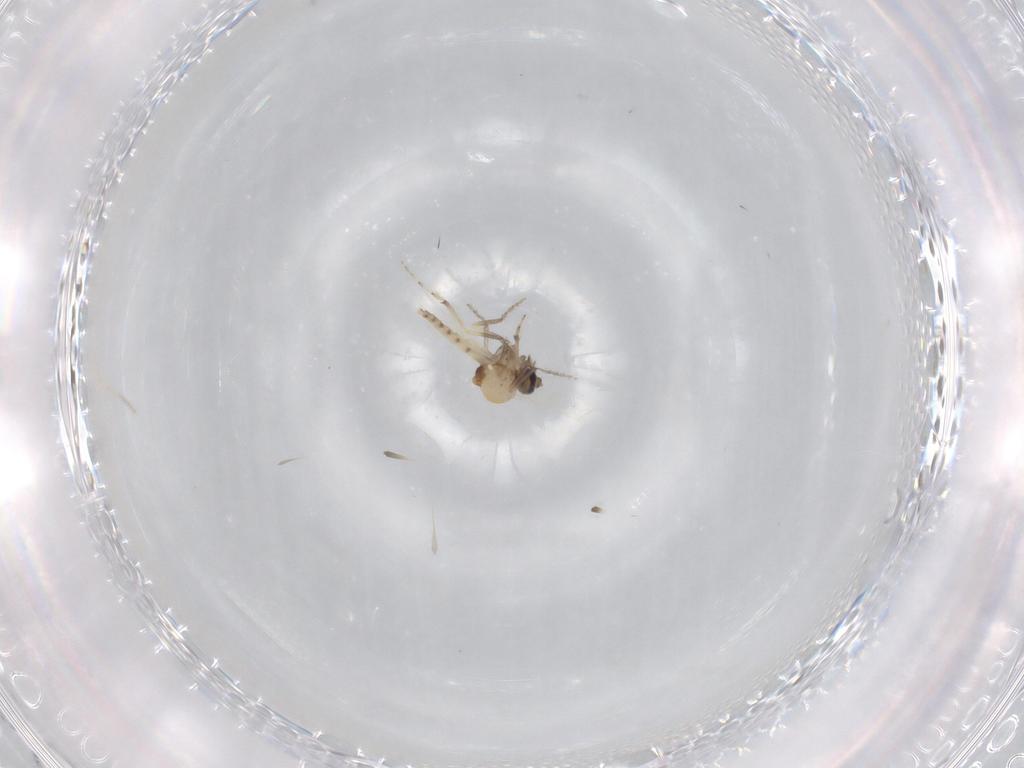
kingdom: Animalia
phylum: Arthropoda
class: Insecta
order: Diptera
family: Ceratopogonidae
